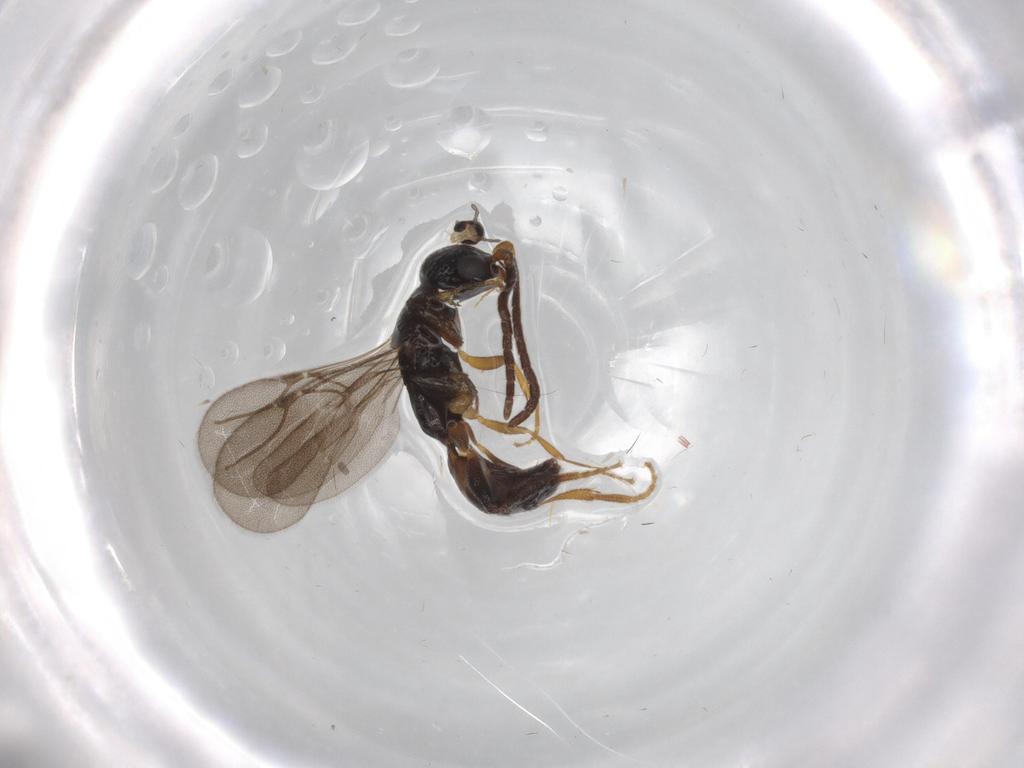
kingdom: Animalia
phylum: Arthropoda
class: Insecta
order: Hymenoptera
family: Bethylidae
